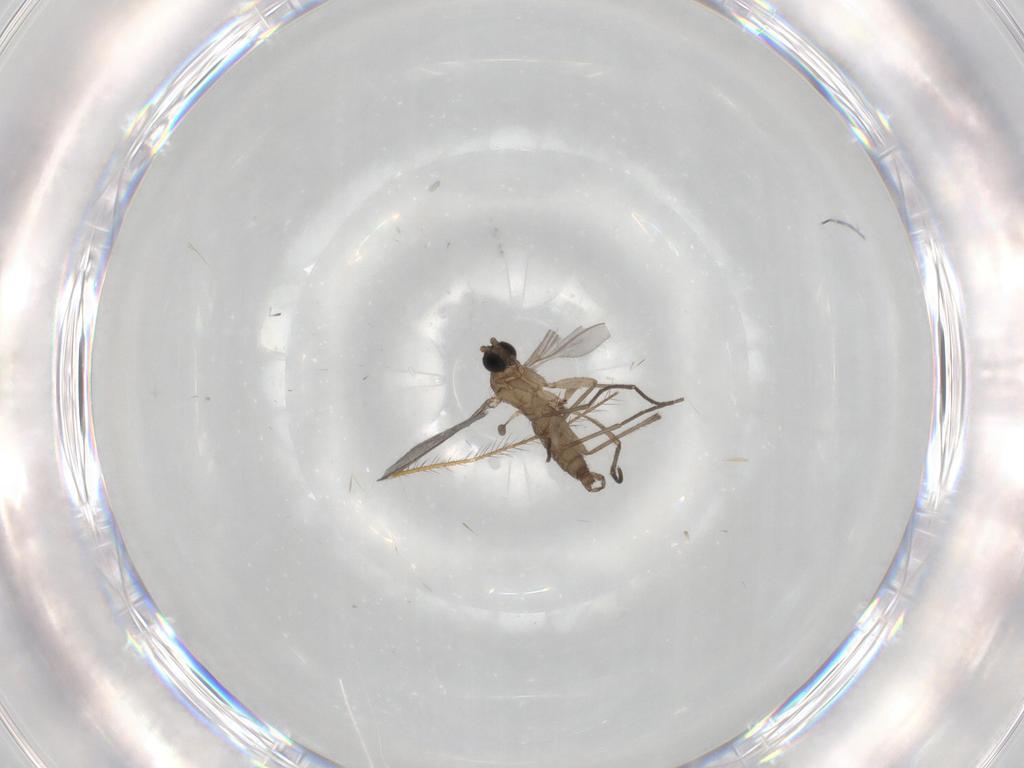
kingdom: Animalia
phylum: Arthropoda
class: Insecta
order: Diptera
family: Sciaridae
